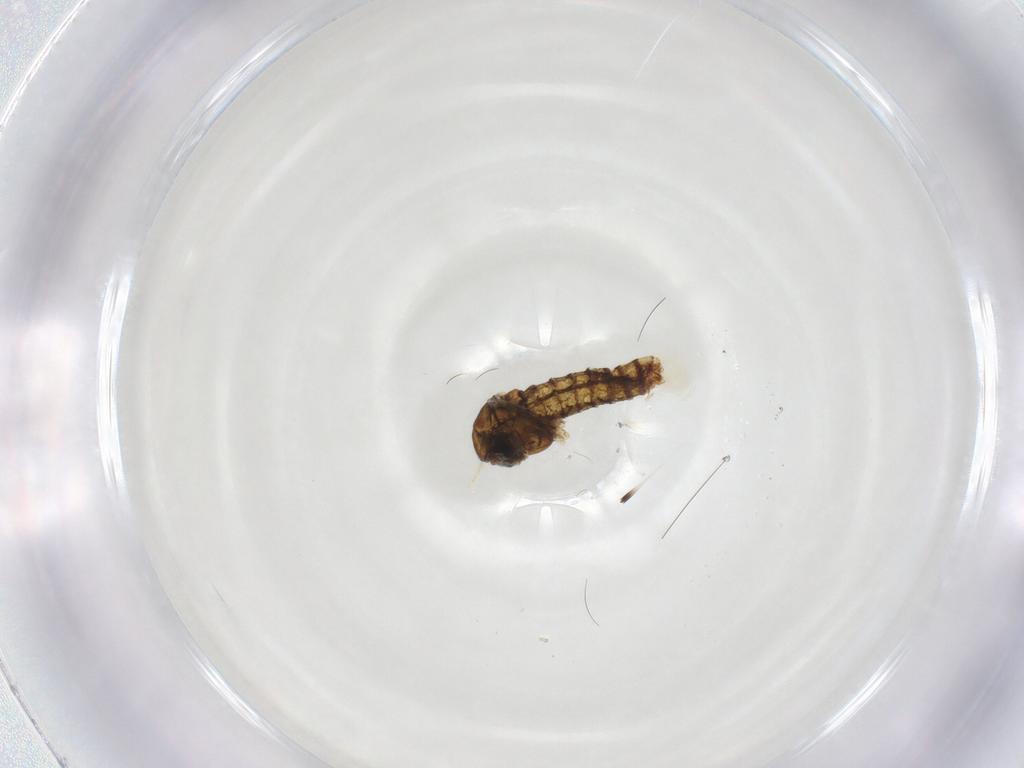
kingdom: Animalia
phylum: Arthropoda
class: Insecta
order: Diptera
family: Chironomidae
